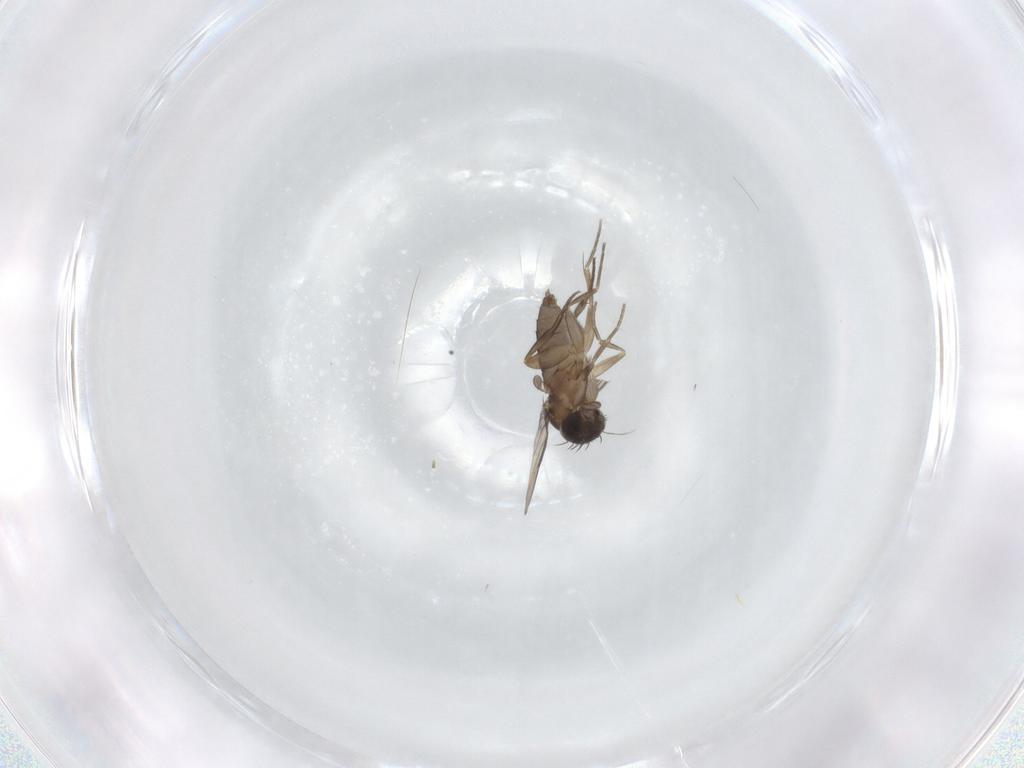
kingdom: Animalia
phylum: Arthropoda
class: Insecta
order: Diptera
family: Phoridae
